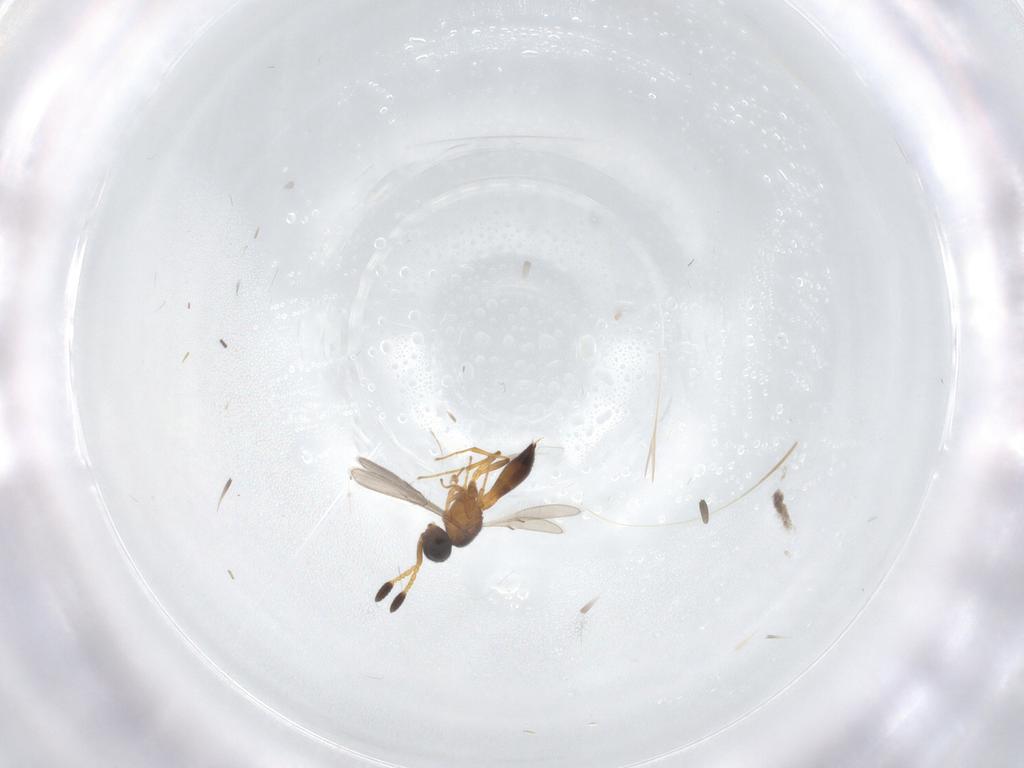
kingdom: Animalia
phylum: Arthropoda
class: Insecta
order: Hymenoptera
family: Scelionidae
